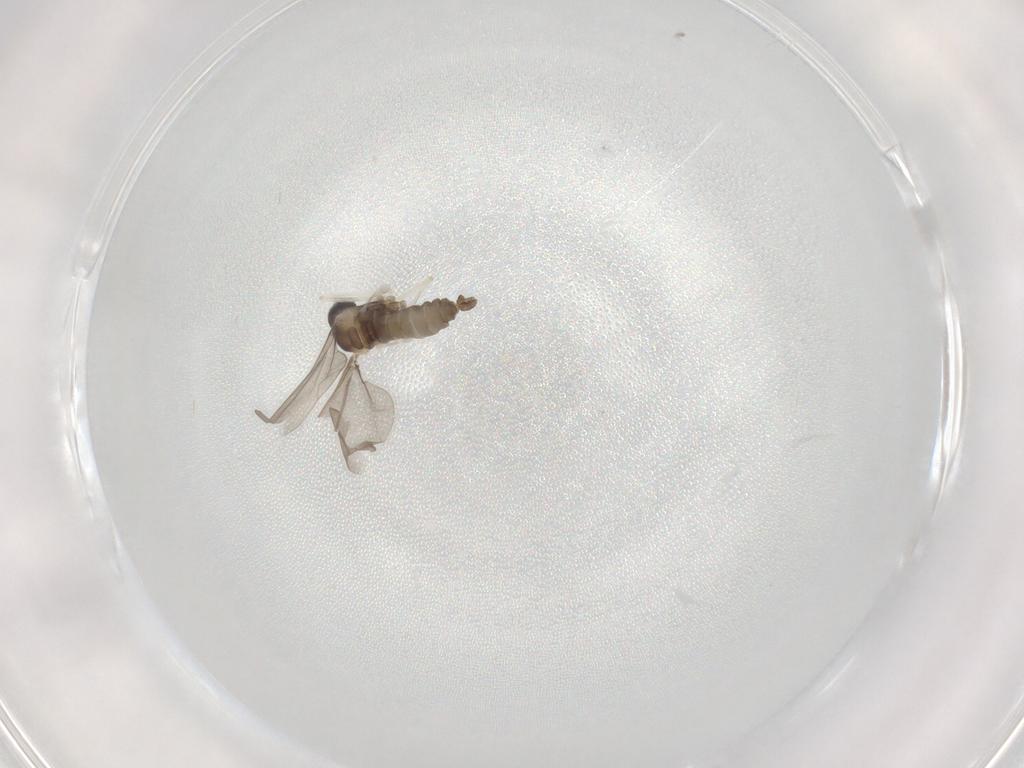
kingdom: Animalia
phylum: Arthropoda
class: Insecta
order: Diptera
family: Cecidomyiidae
